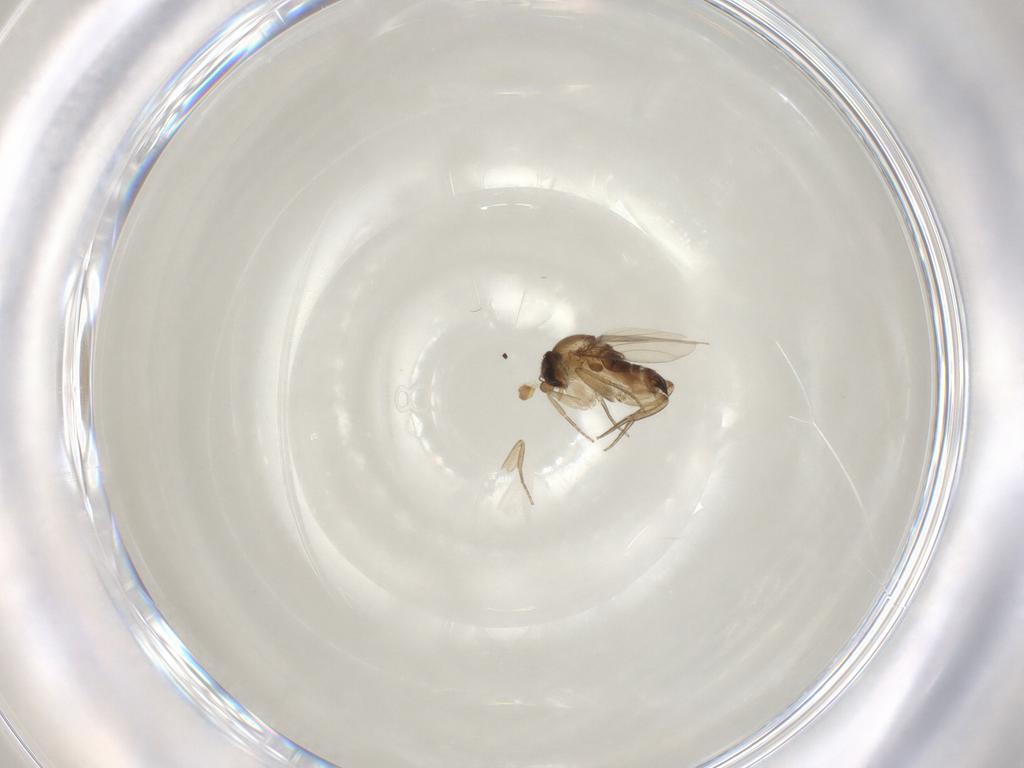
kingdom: Animalia
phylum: Arthropoda
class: Insecta
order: Diptera
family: Phoridae
